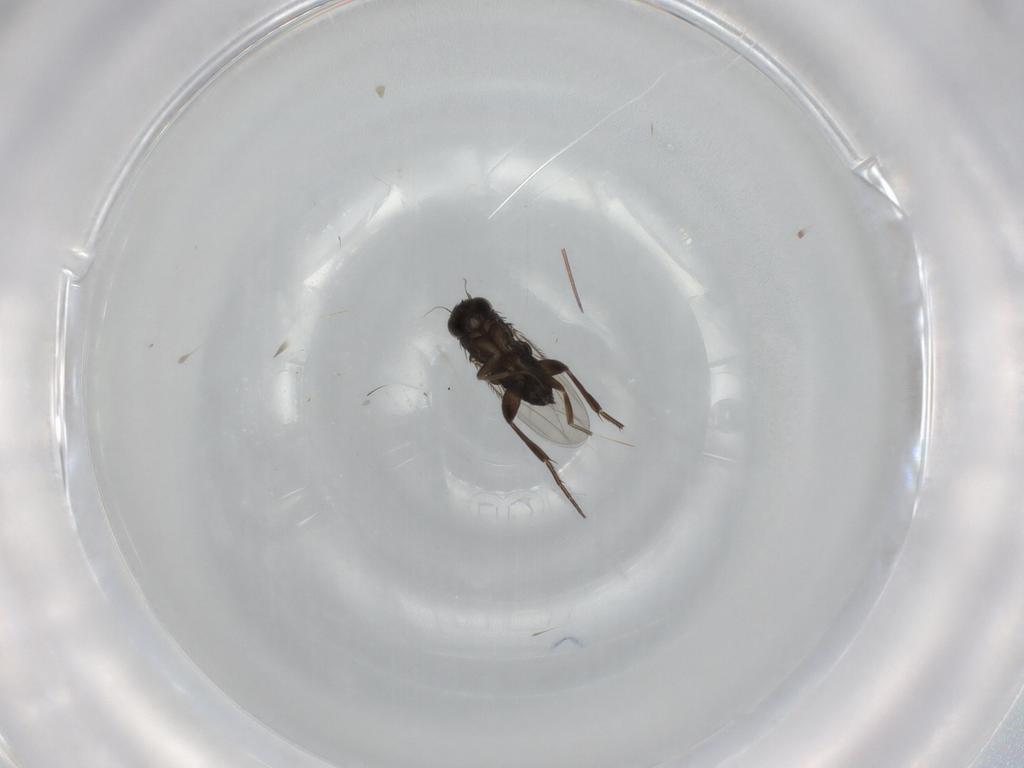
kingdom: Animalia
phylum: Arthropoda
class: Insecta
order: Diptera
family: Phoridae
